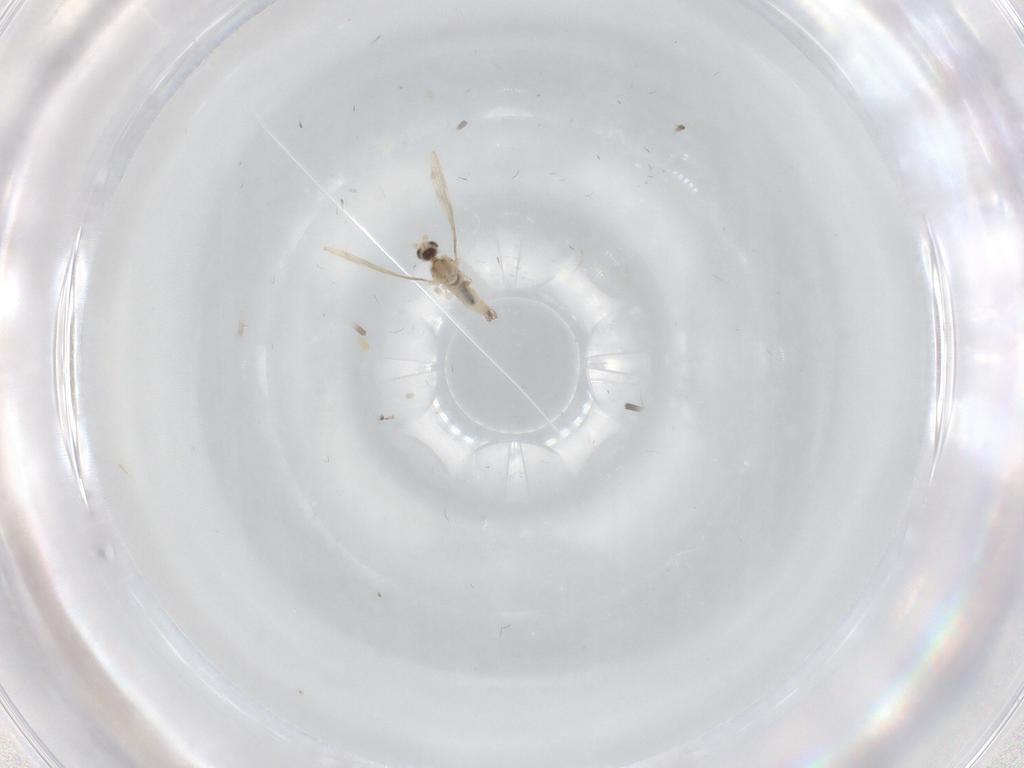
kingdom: Animalia
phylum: Arthropoda
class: Insecta
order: Diptera
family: Cecidomyiidae
